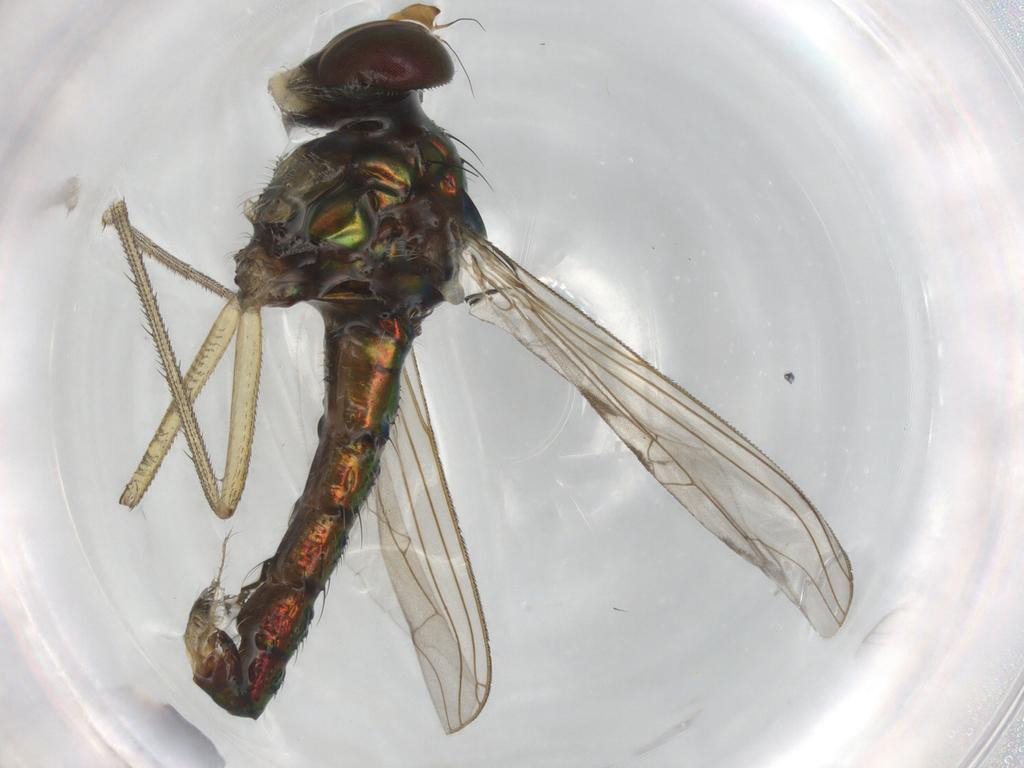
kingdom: Animalia
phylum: Arthropoda
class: Insecta
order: Diptera
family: Dolichopodidae
